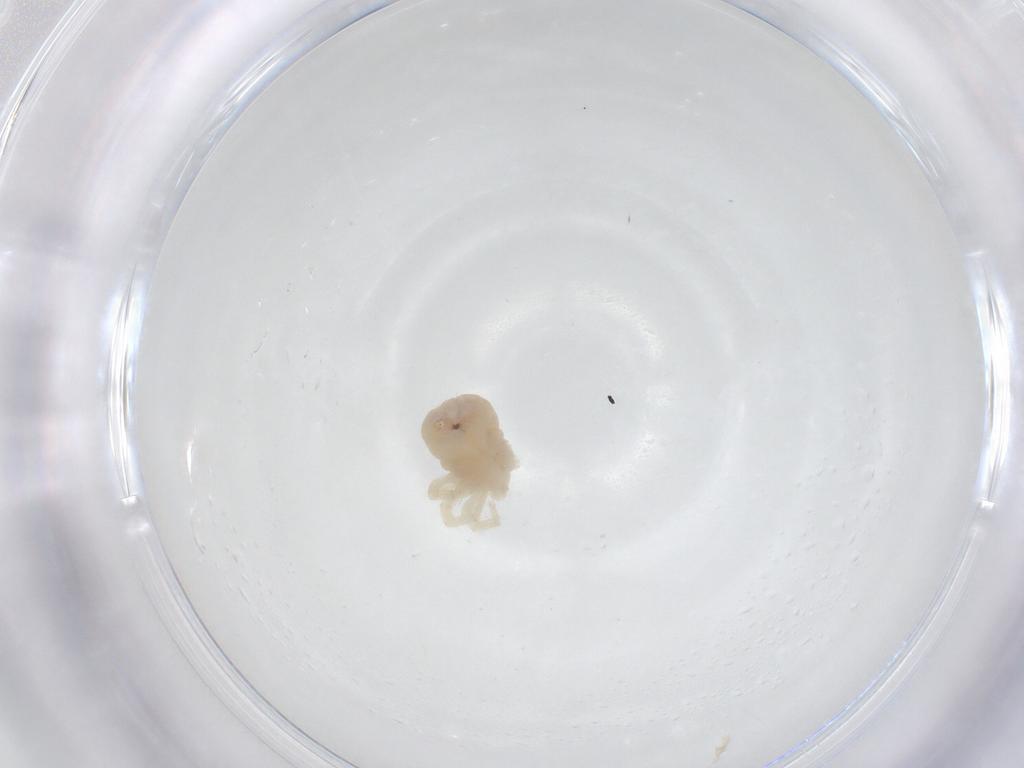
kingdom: Animalia
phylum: Arthropoda
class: Arachnida
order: Trombidiformes
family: Anystidae
